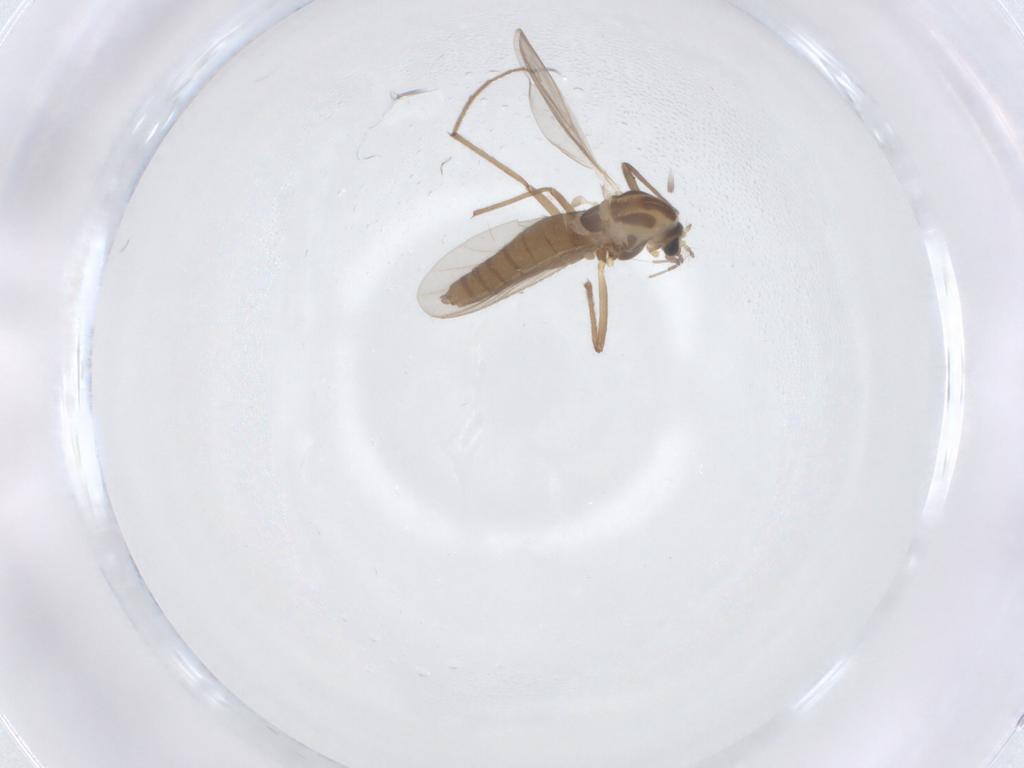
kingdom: Animalia
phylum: Arthropoda
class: Insecta
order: Diptera
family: Chironomidae
